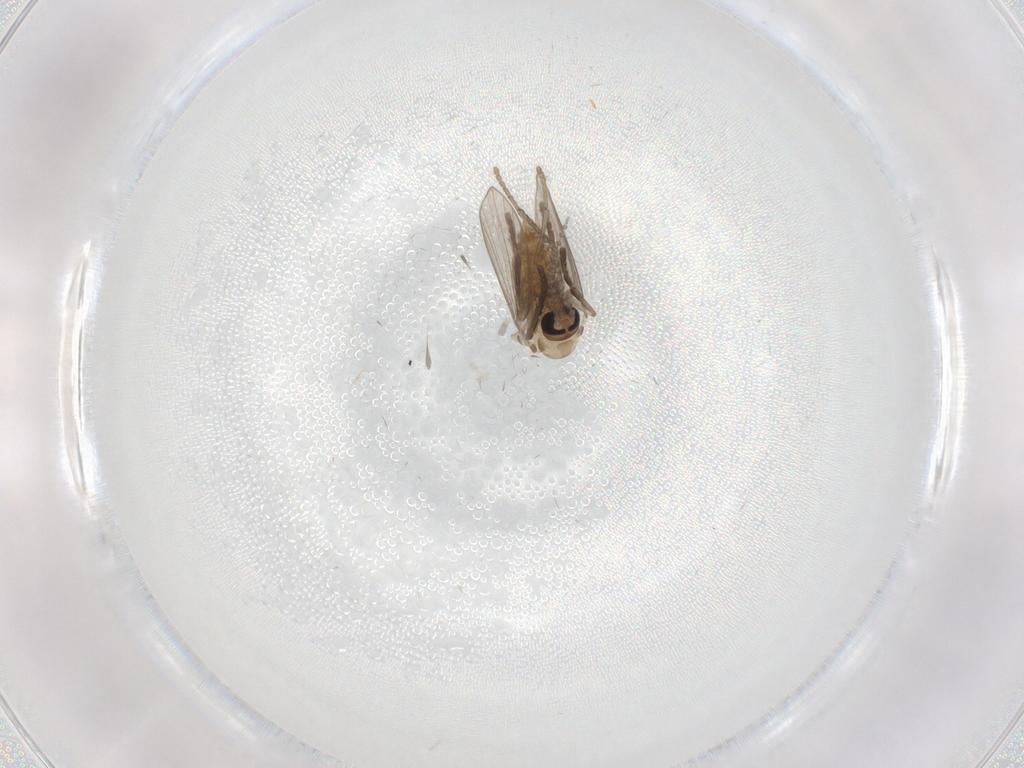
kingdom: Animalia
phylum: Arthropoda
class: Insecta
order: Diptera
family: Psychodidae
